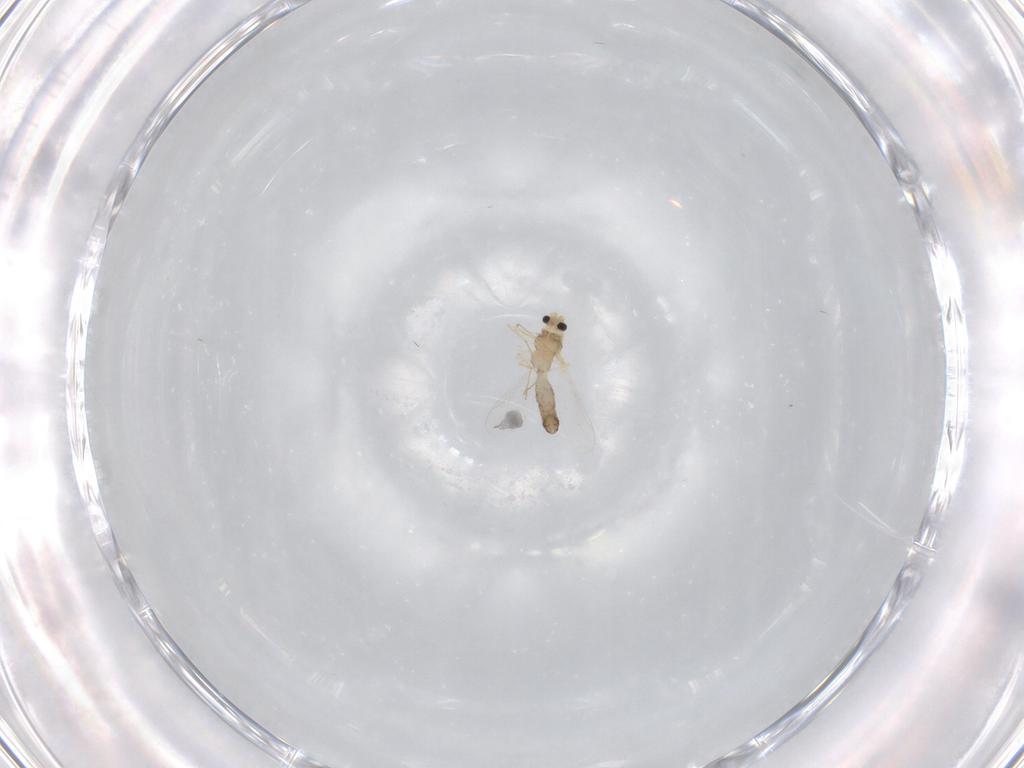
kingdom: Animalia
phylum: Arthropoda
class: Insecta
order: Diptera
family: Chironomidae
